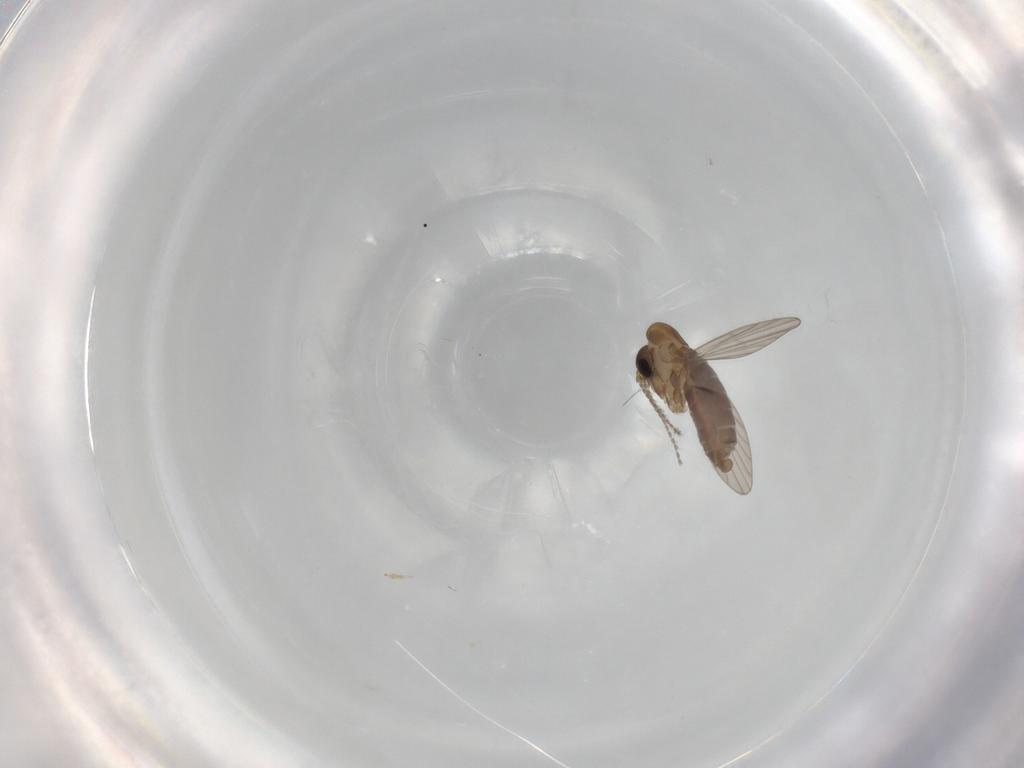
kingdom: Animalia
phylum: Arthropoda
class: Insecta
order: Diptera
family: Psychodidae
